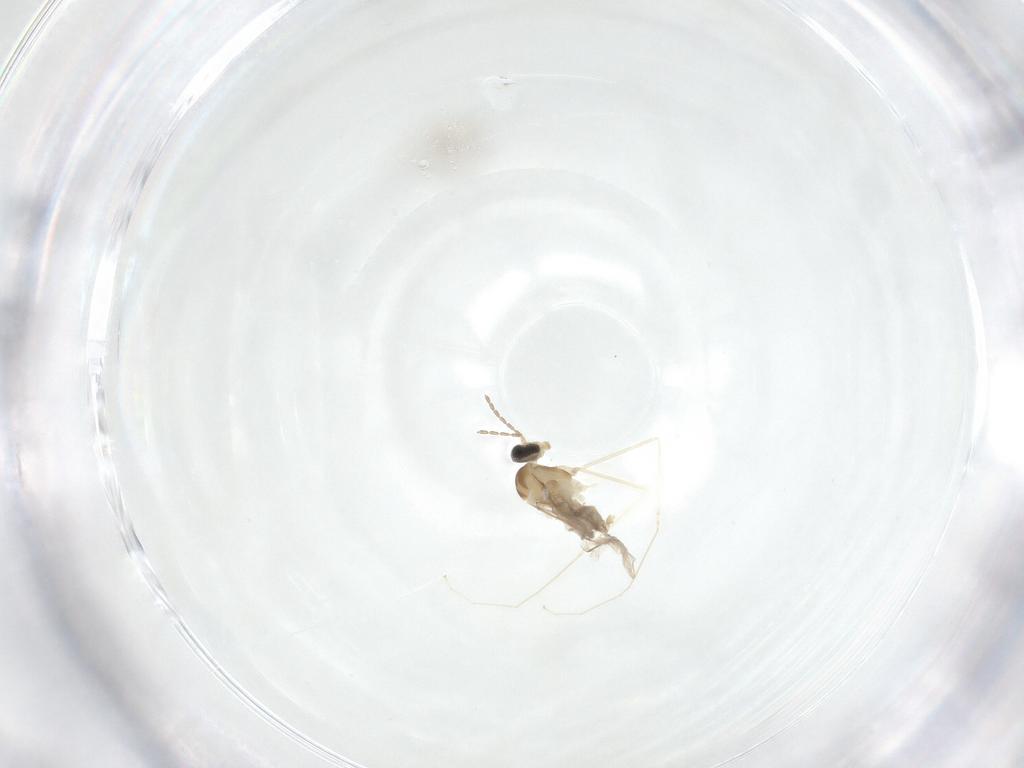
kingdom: Animalia
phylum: Arthropoda
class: Insecta
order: Diptera
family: Cecidomyiidae
